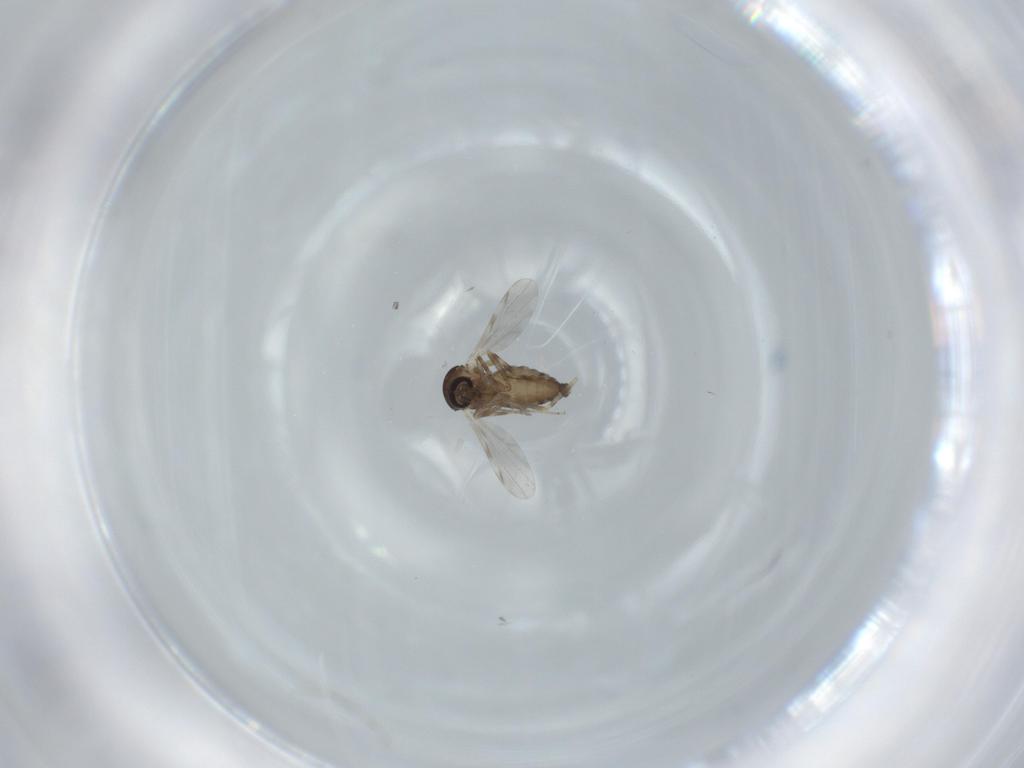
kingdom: Animalia
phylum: Arthropoda
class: Insecta
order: Diptera
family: Ceratopogonidae
